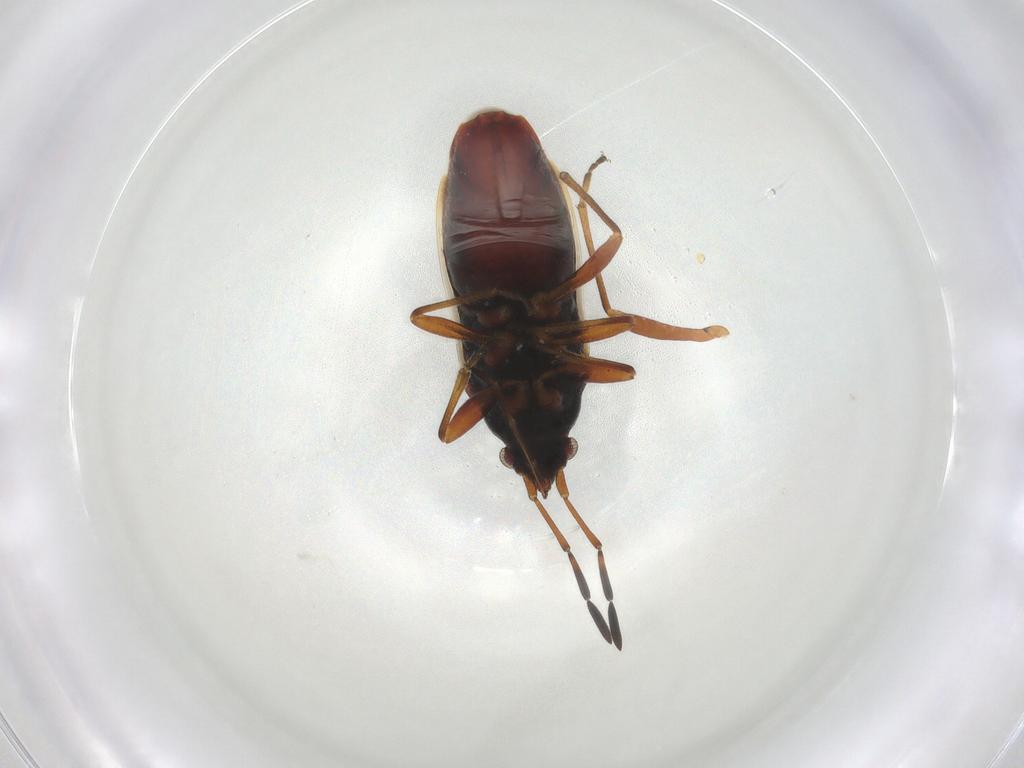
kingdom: Animalia
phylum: Arthropoda
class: Insecta
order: Hemiptera
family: Rhyparochromidae
